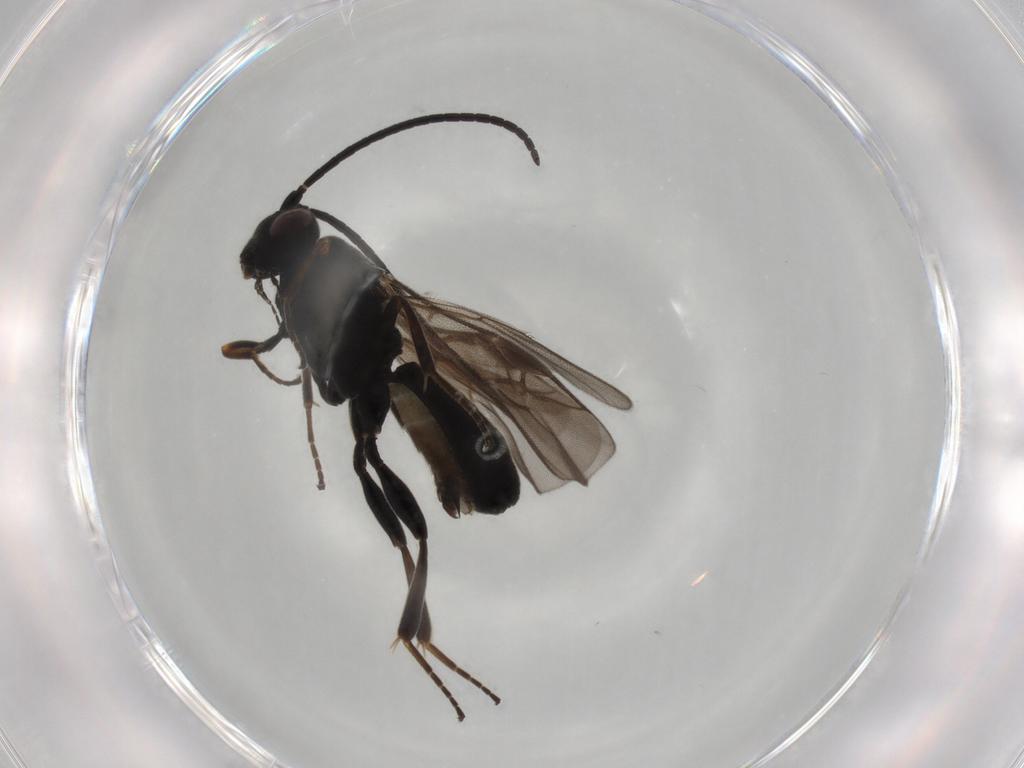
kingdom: Animalia
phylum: Arthropoda
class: Insecta
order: Hymenoptera
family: Braconidae
